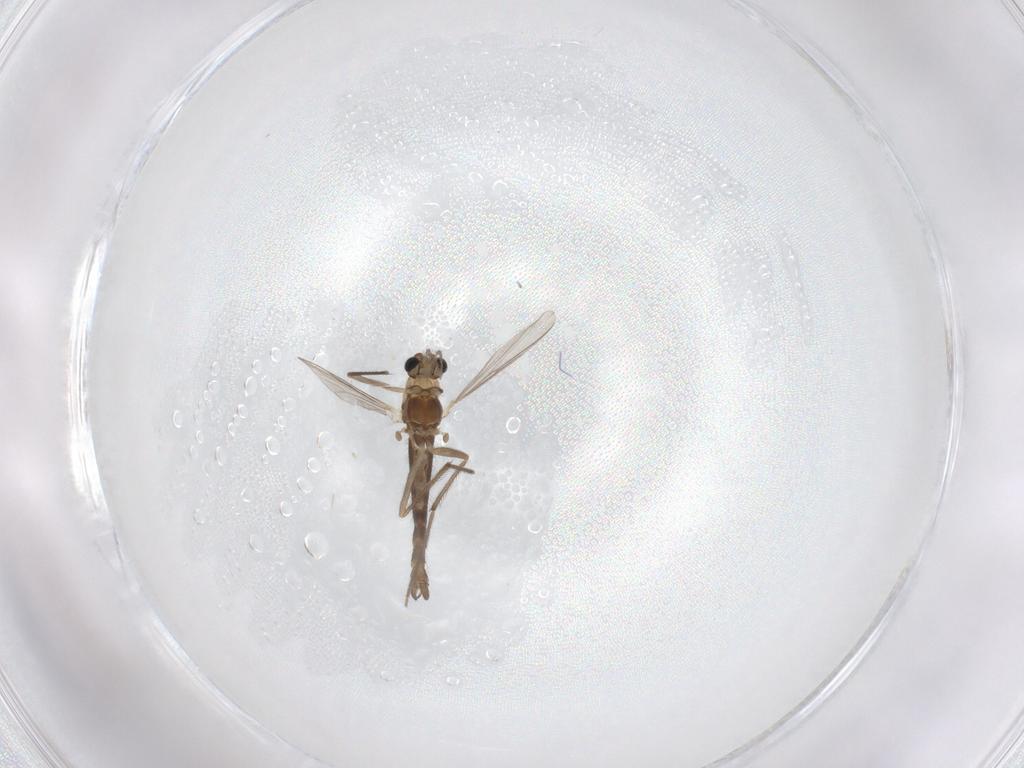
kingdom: Animalia
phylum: Arthropoda
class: Insecta
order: Diptera
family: Chironomidae
